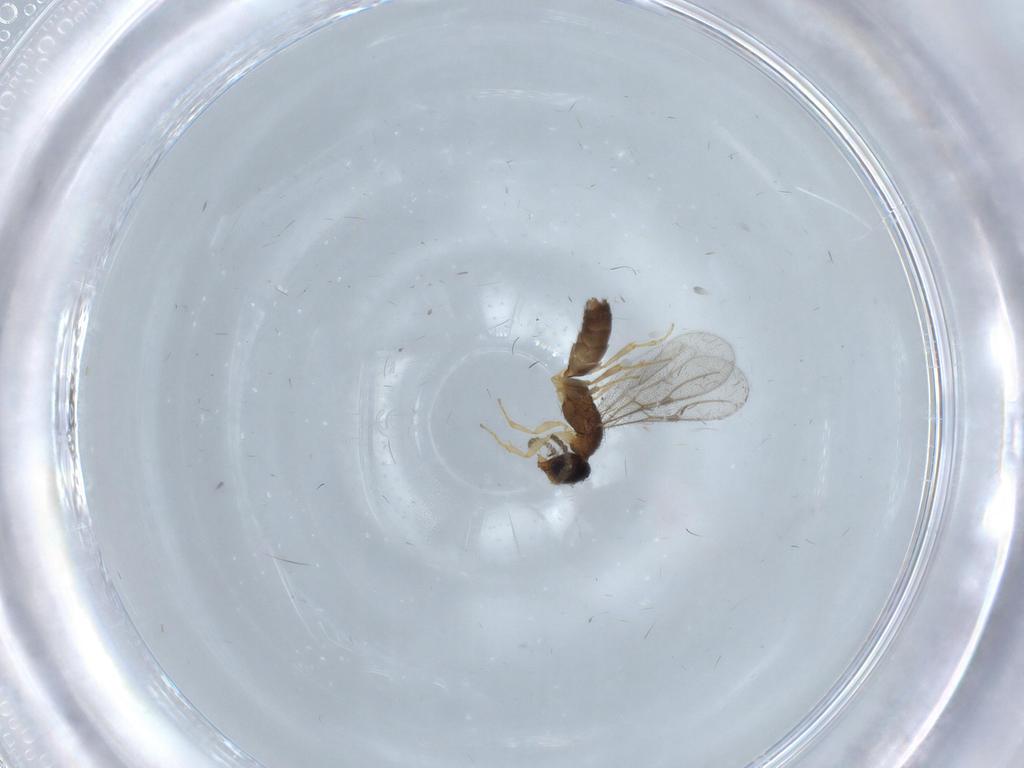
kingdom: Animalia
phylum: Arthropoda
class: Insecta
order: Hymenoptera
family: Bethylidae
